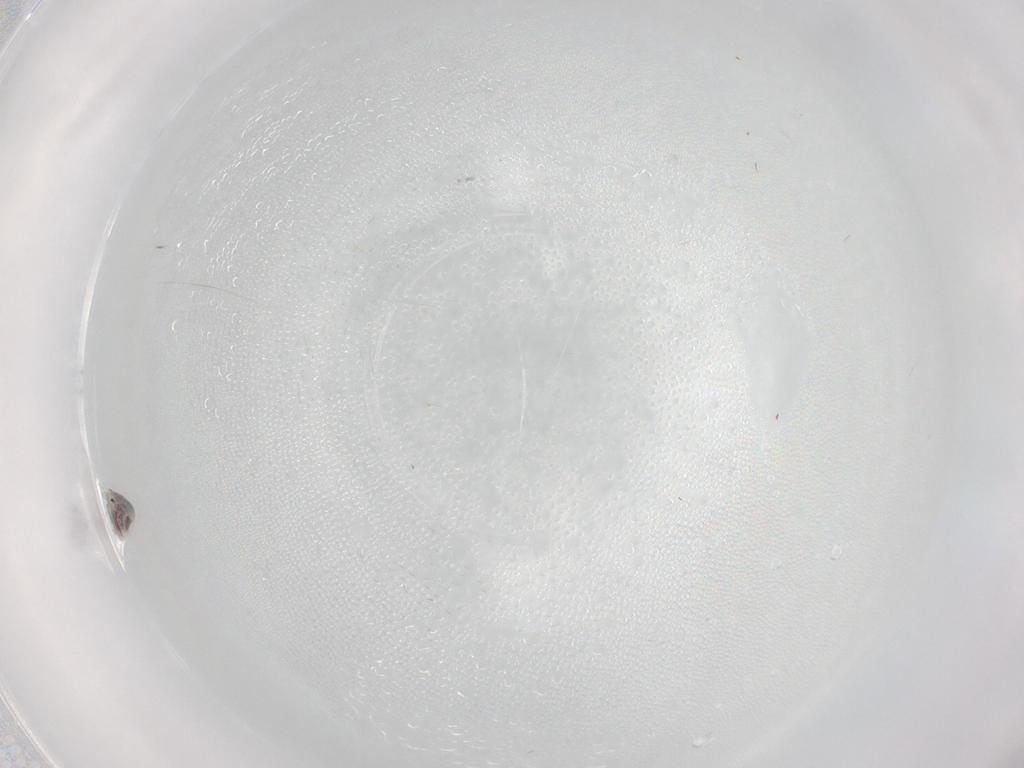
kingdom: Animalia
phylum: Arthropoda
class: Arachnida
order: Trombidiformes
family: Pionidae
